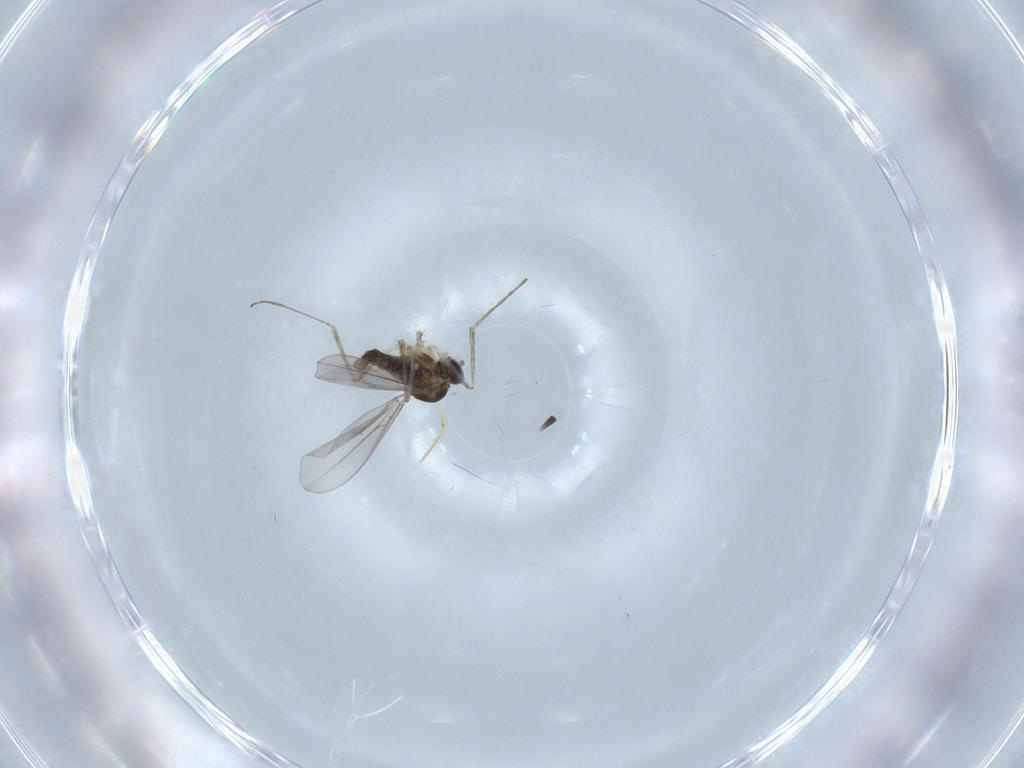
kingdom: Animalia
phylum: Arthropoda
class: Insecta
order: Diptera
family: Cecidomyiidae
